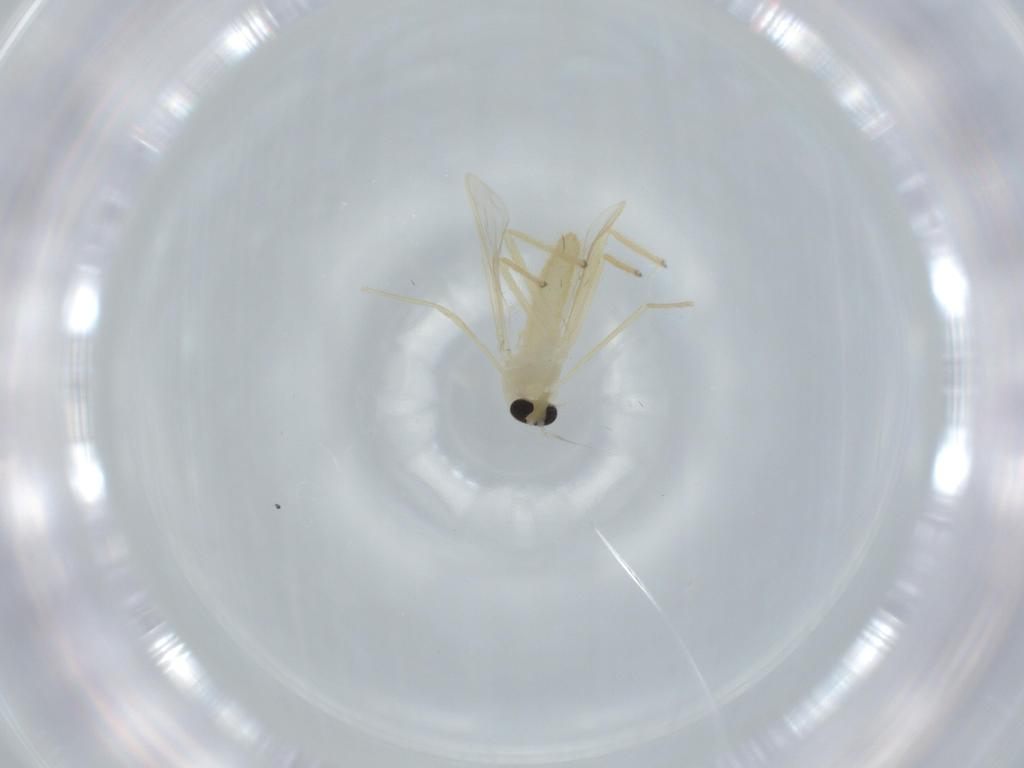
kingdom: Animalia
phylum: Arthropoda
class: Insecta
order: Diptera
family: Chironomidae
